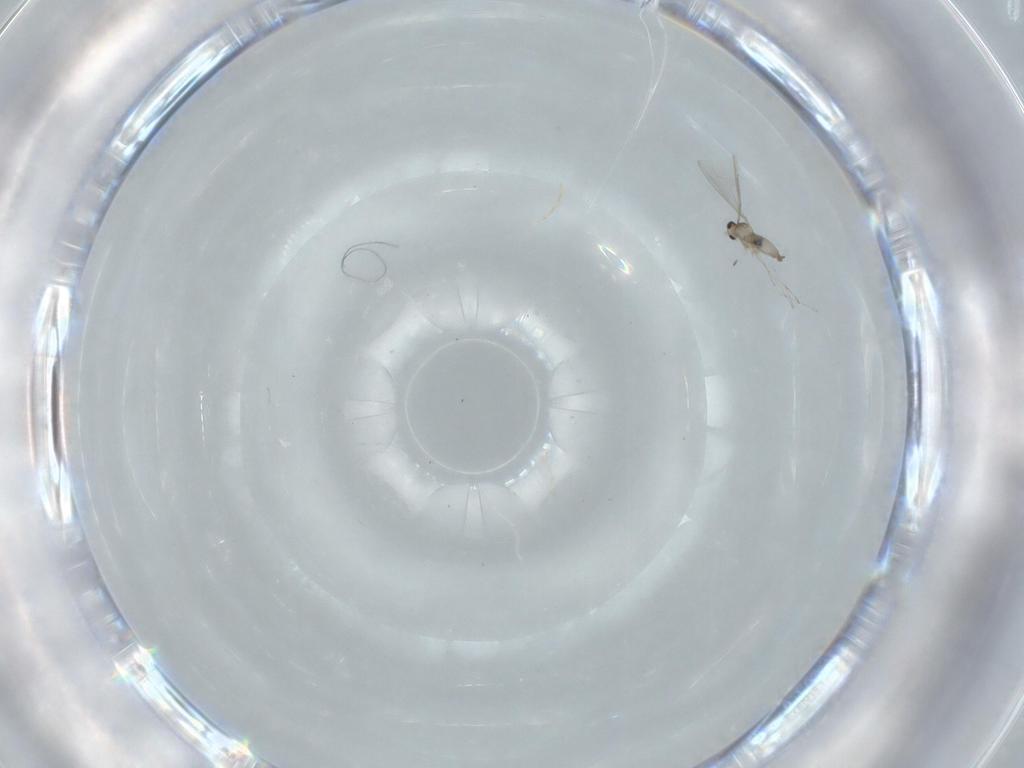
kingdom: Animalia
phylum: Arthropoda
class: Insecta
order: Diptera
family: Cecidomyiidae
